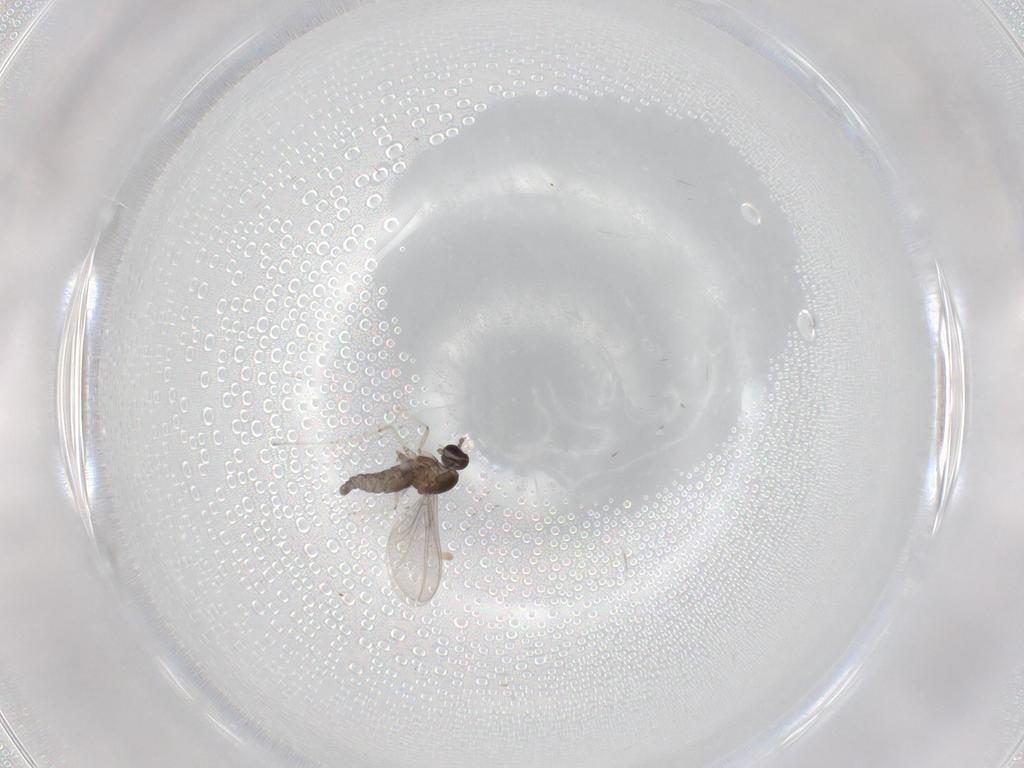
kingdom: Animalia
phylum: Arthropoda
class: Insecta
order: Diptera
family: Cecidomyiidae
